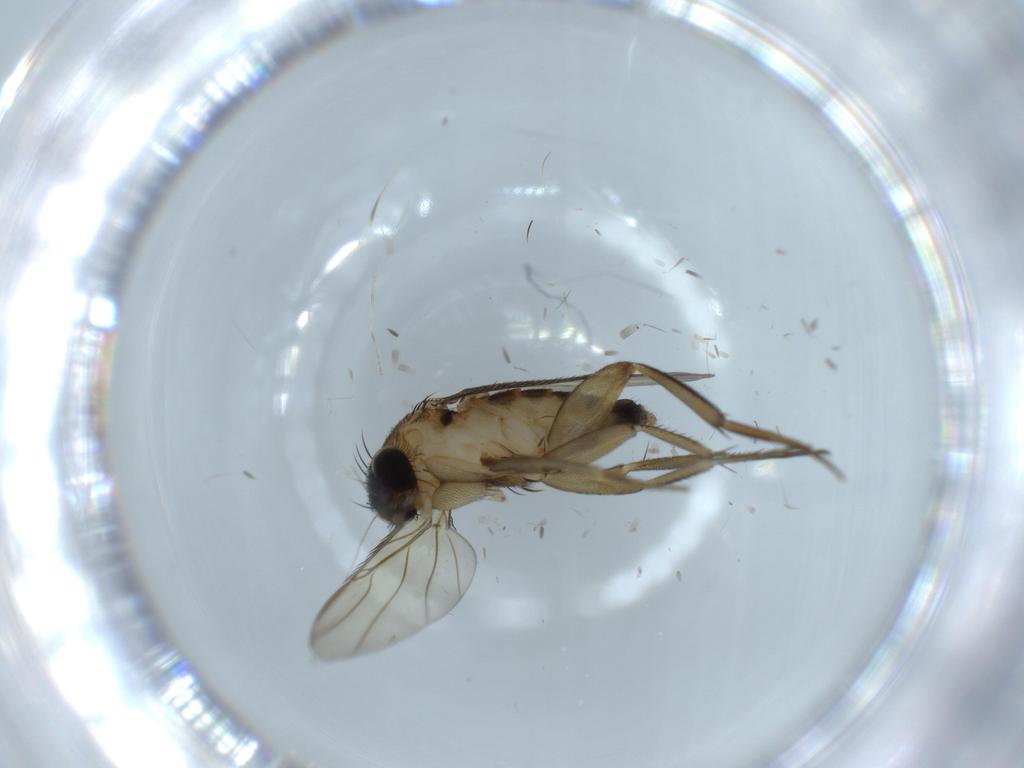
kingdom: Animalia
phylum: Arthropoda
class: Insecta
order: Diptera
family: Phoridae
